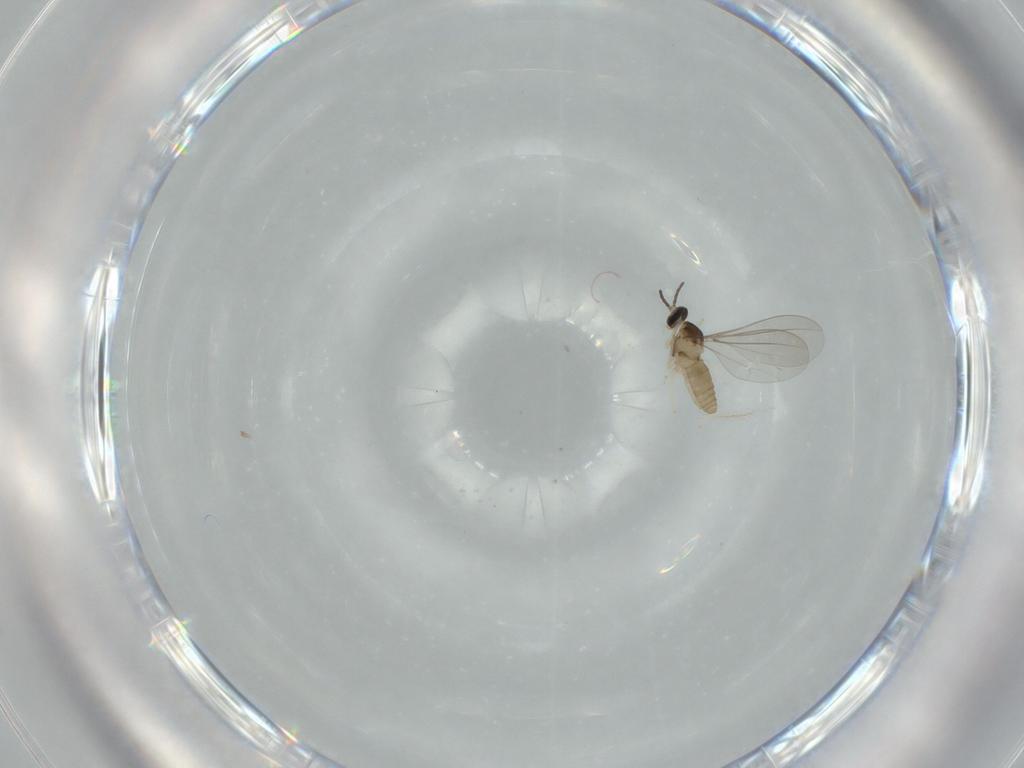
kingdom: Animalia
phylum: Arthropoda
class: Insecta
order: Diptera
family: Cecidomyiidae
